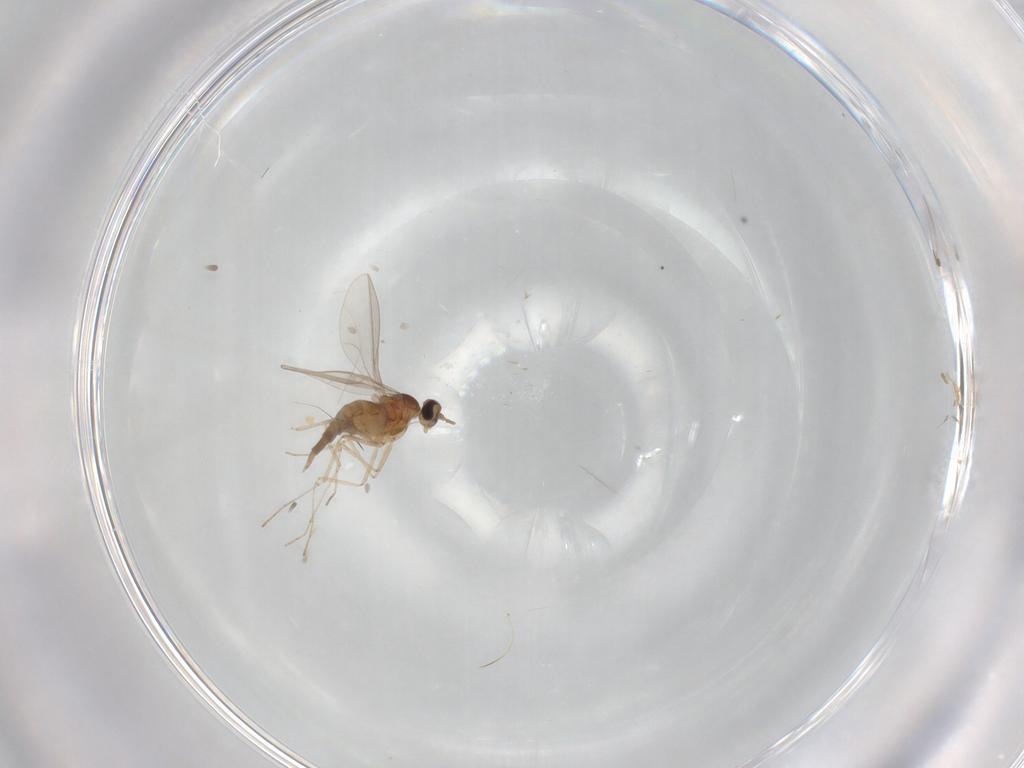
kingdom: Animalia
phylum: Arthropoda
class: Insecta
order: Diptera
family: Cecidomyiidae
